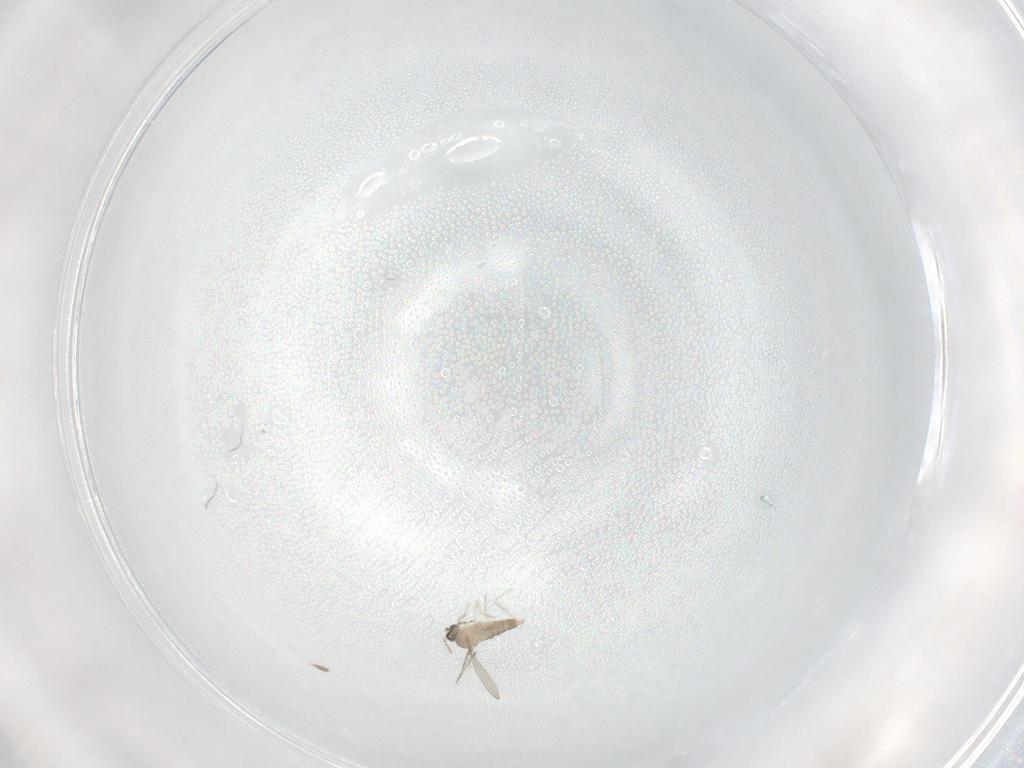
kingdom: Animalia
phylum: Arthropoda
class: Insecta
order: Diptera
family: Cecidomyiidae
